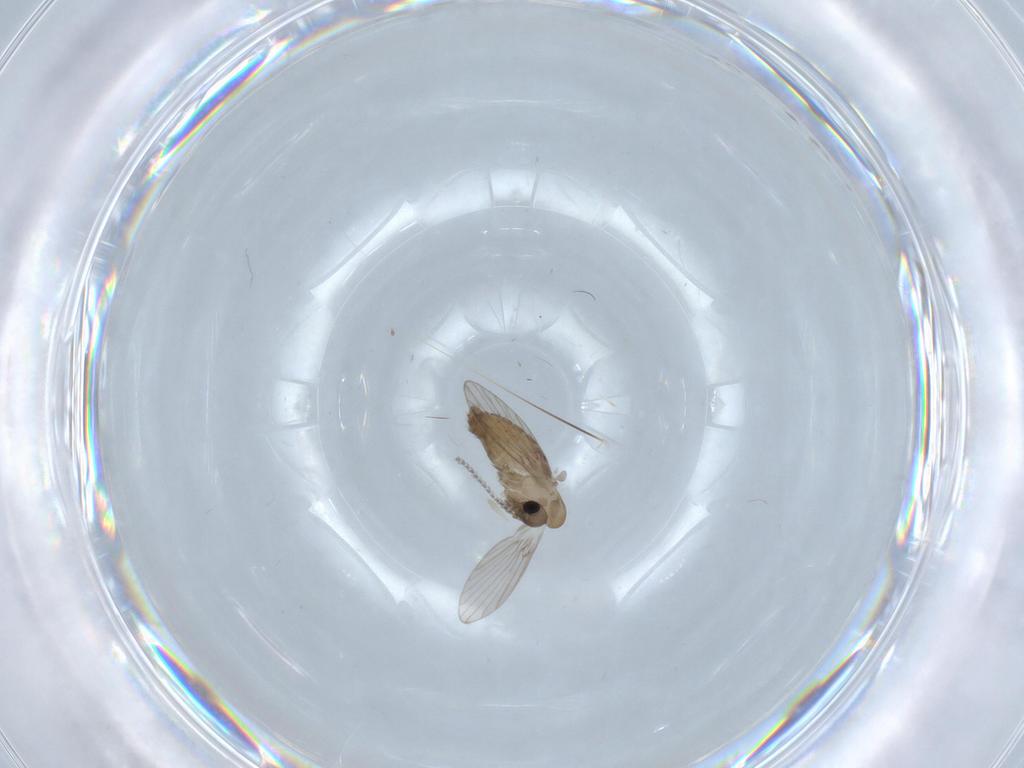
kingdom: Animalia
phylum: Arthropoda
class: Insecta
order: Diptera
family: Psychodidae
